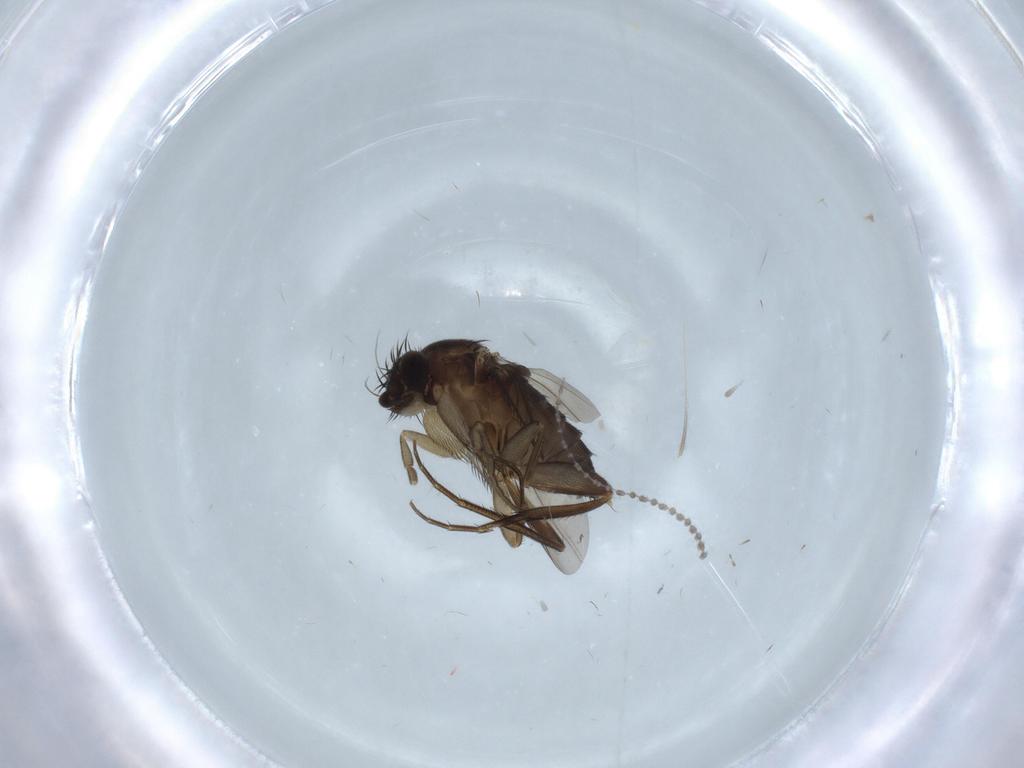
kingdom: Animalia
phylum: Arthropoda
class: Insecta
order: Diptera
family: Cecidomyiidae
